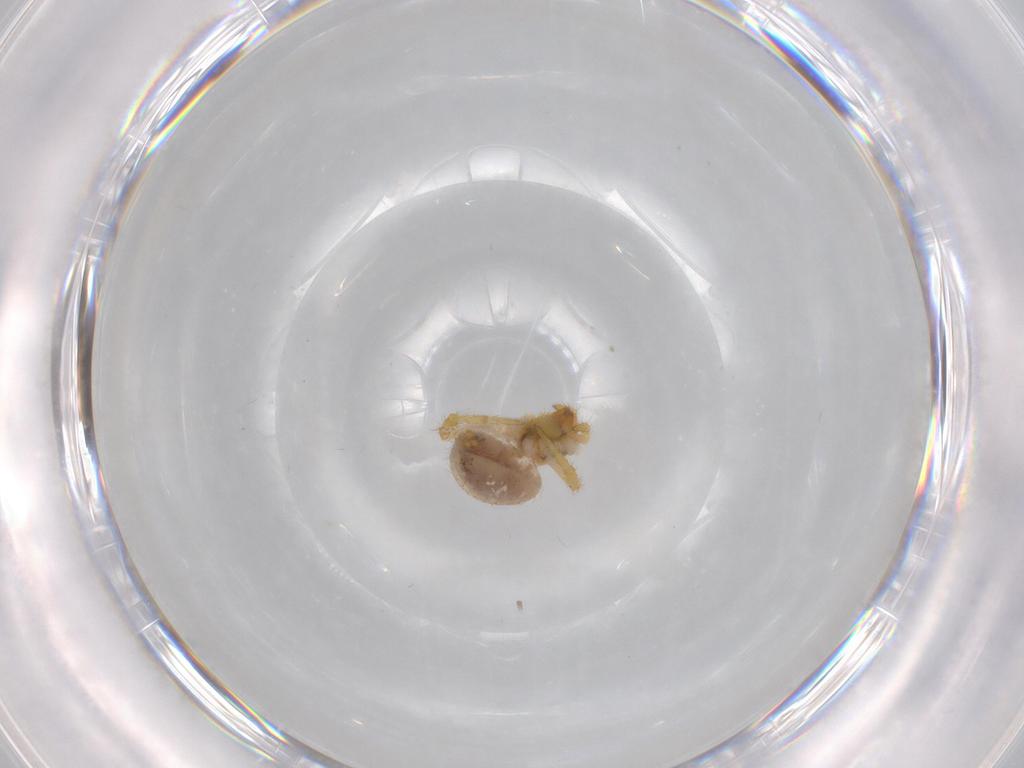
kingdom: Animalia
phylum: Arthropoda
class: Arachnida
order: Araneae
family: Theridiidae
